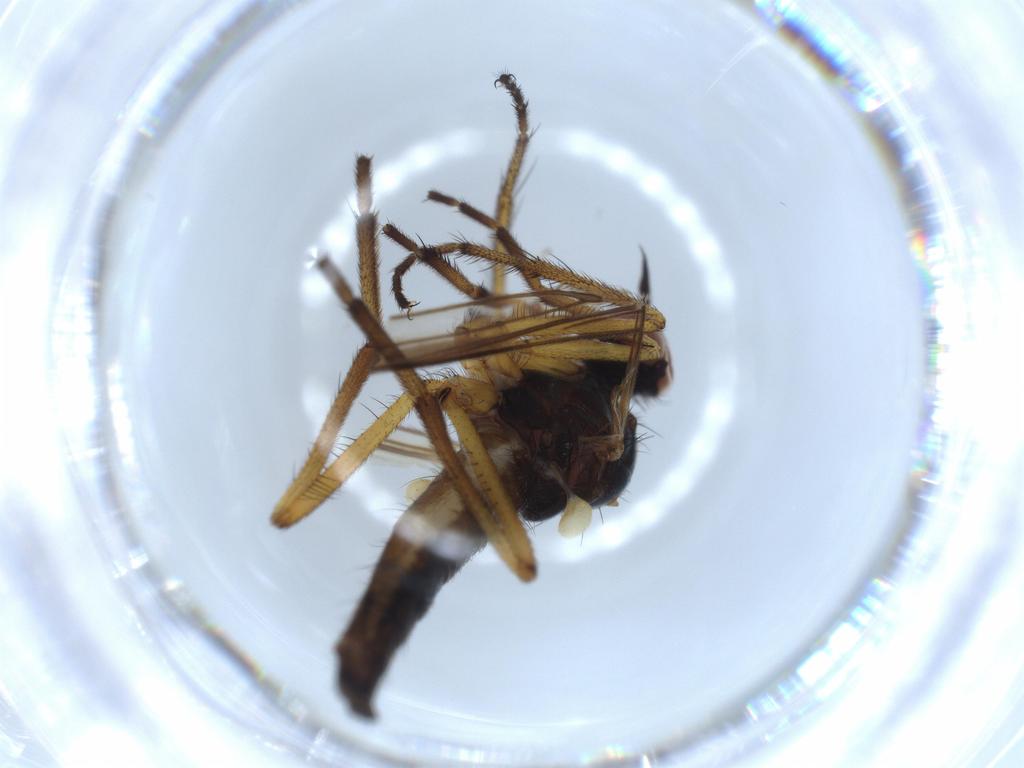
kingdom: Animalia
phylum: Arthropoda
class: Insecta
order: Diptera
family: Empididae
